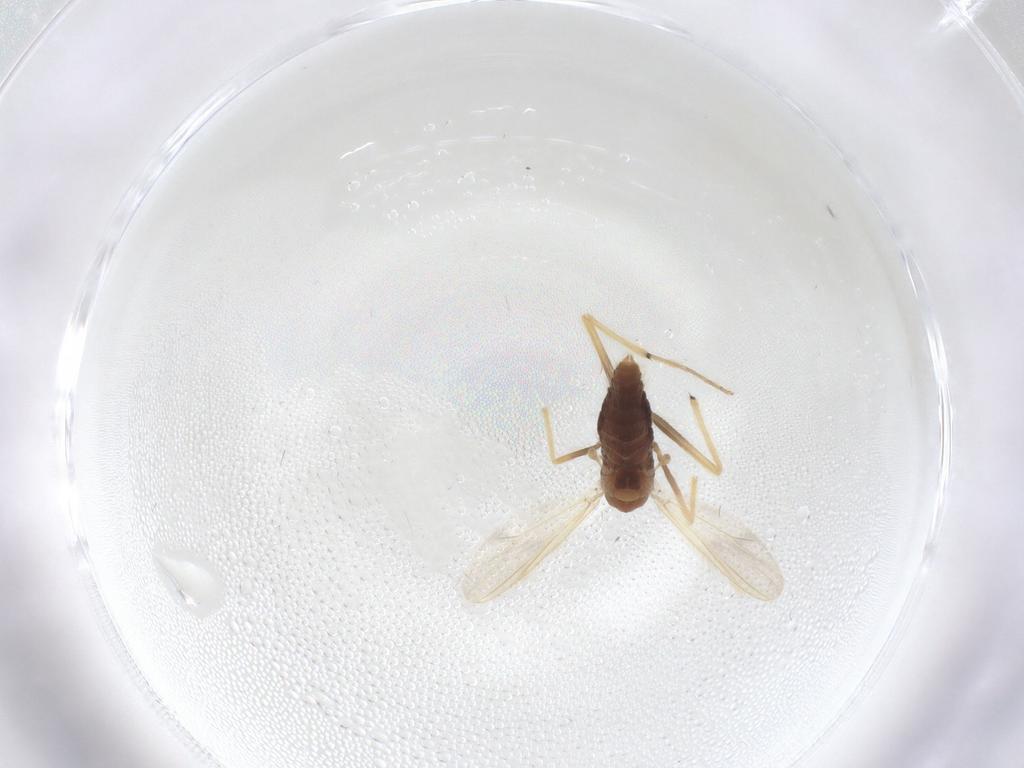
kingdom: Animalia
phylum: Arthropoda
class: Insecta
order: Diptera
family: Chironomidae
